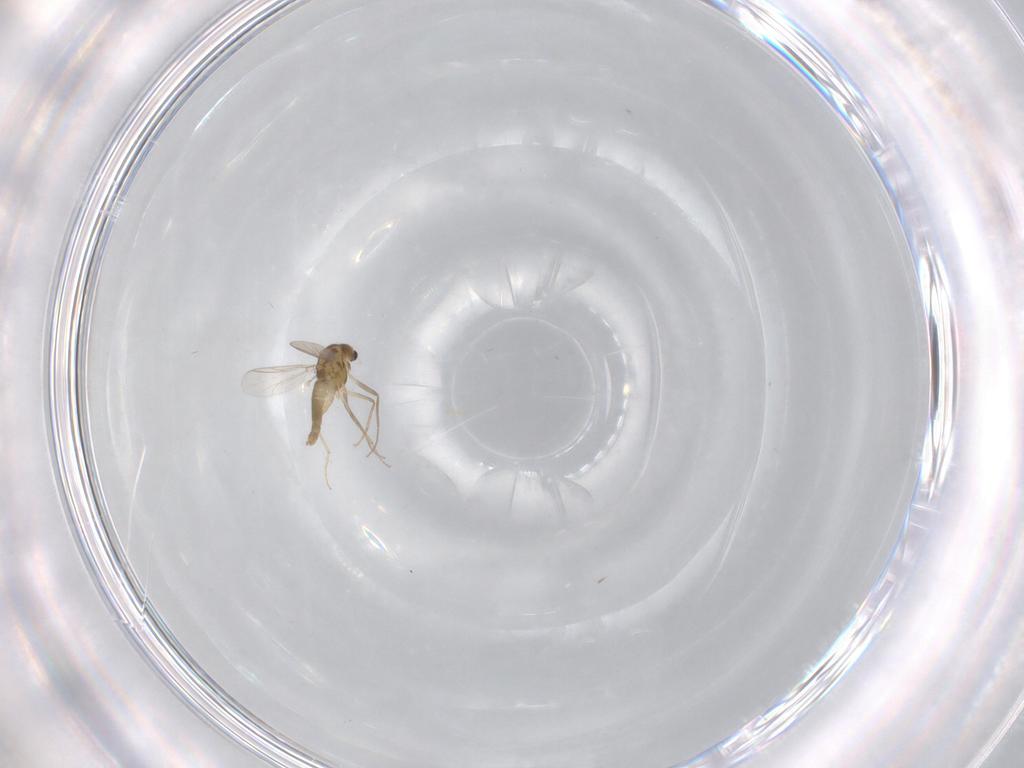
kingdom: Animalia
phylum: Arthropoda
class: Insecta
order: Diptera
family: Chironomidae
